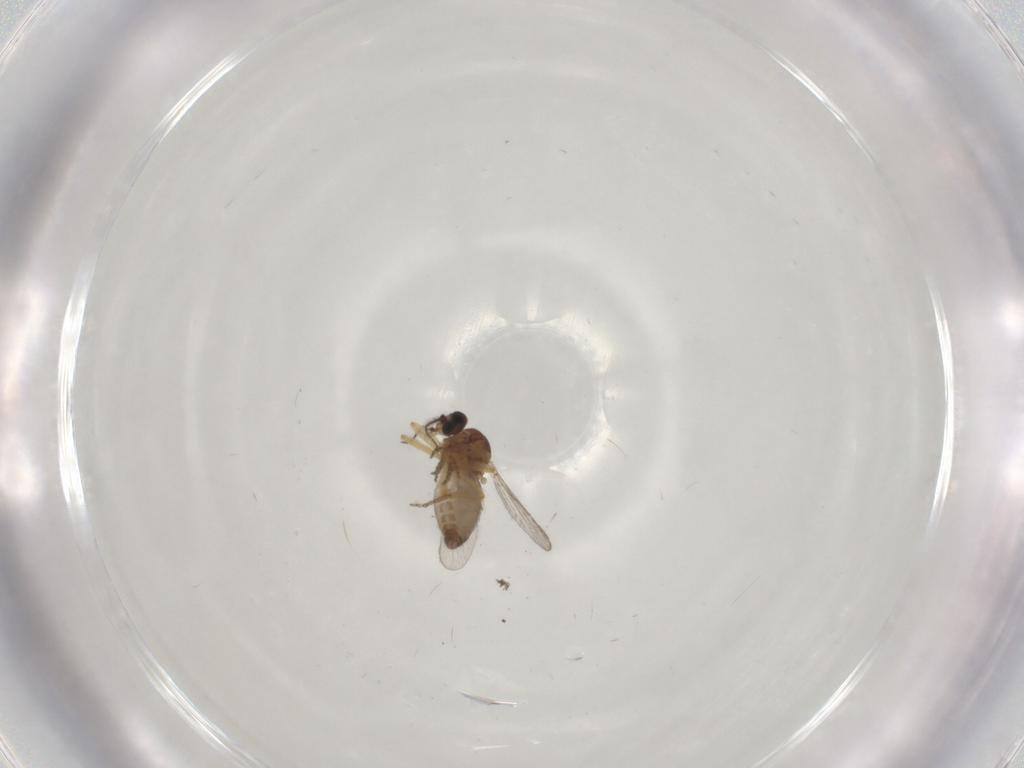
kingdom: Animalia
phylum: Arthropoda
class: Insecta
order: Diptera
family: Ceratopogonidae
